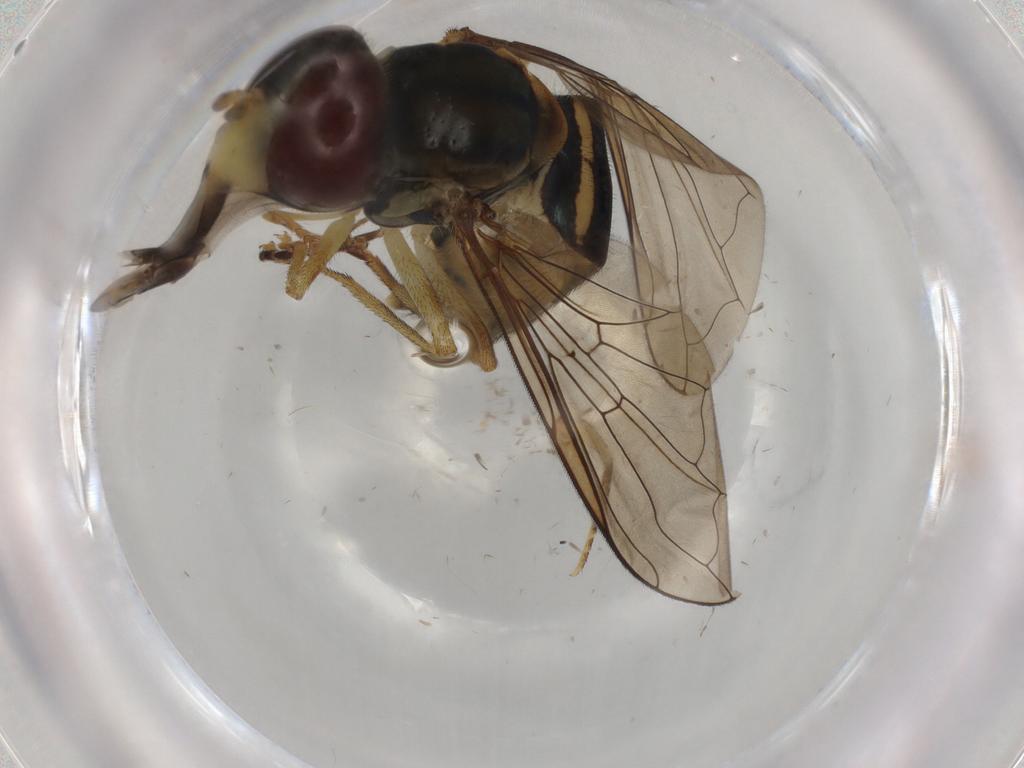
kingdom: Animalia
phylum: Arthropoda
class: Insecta
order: Diptera
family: Syrphidae
